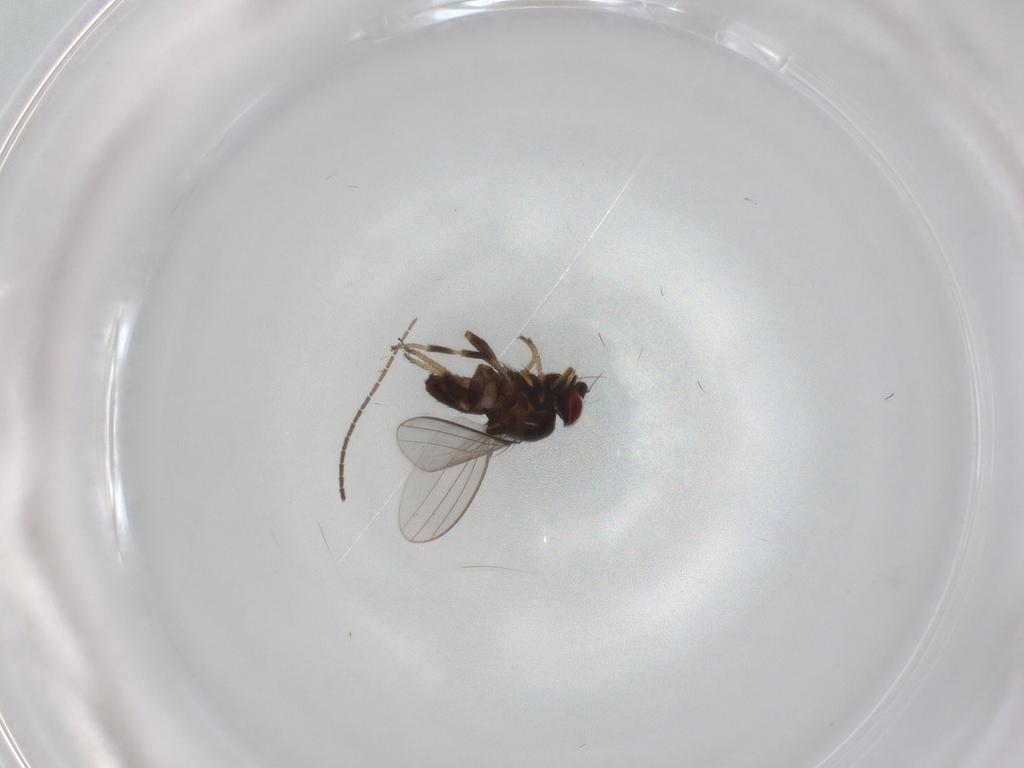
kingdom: Animalia
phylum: Arthropoda
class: Insecta
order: Diptera
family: Milichiidae
